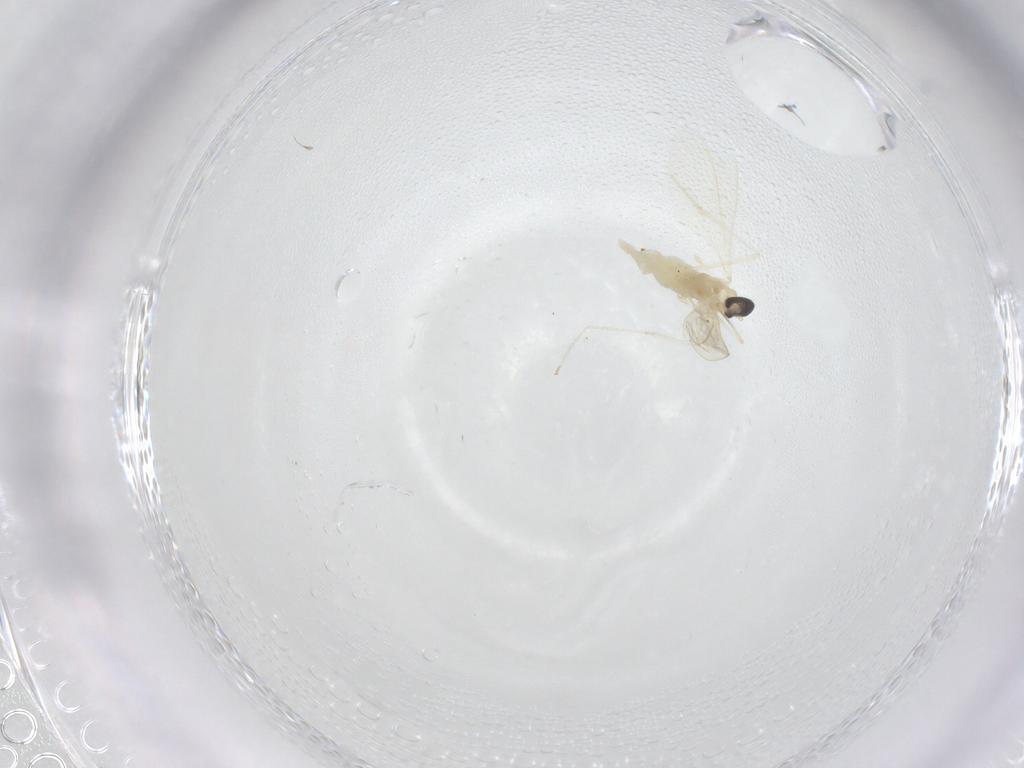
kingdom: Animalia
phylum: Arthropoda
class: Insecta
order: Diptera
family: Cecidomyiidae
